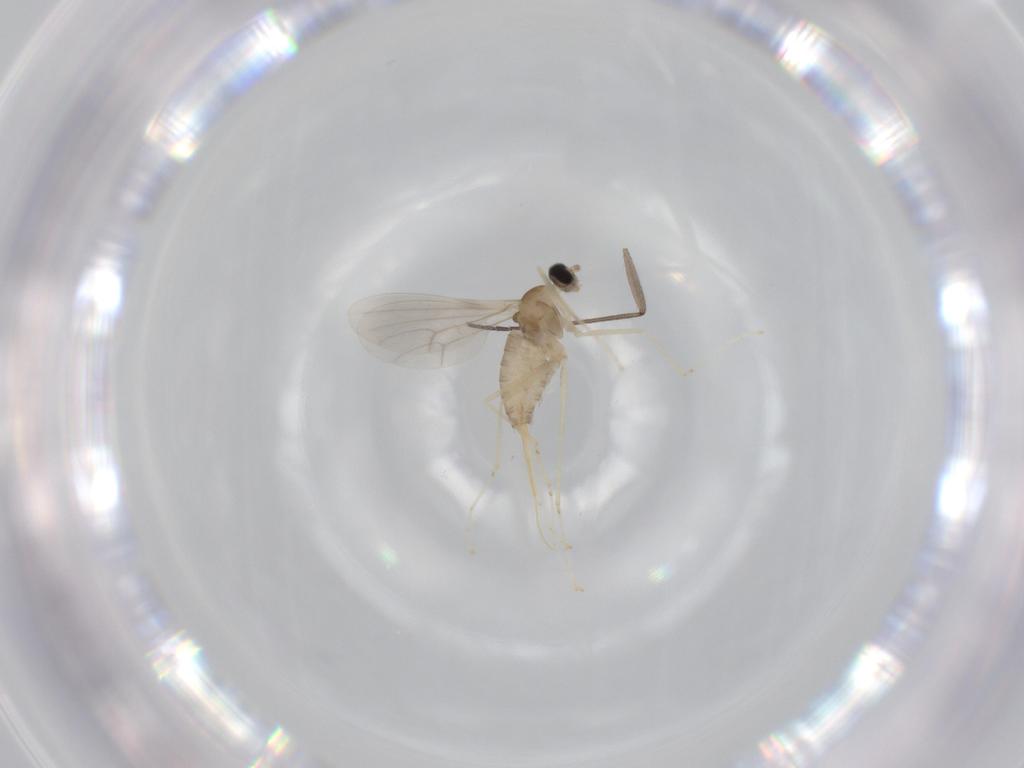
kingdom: Animalia
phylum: Arthropoda
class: Insecta
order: Diptera
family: Cecidomyiidae
